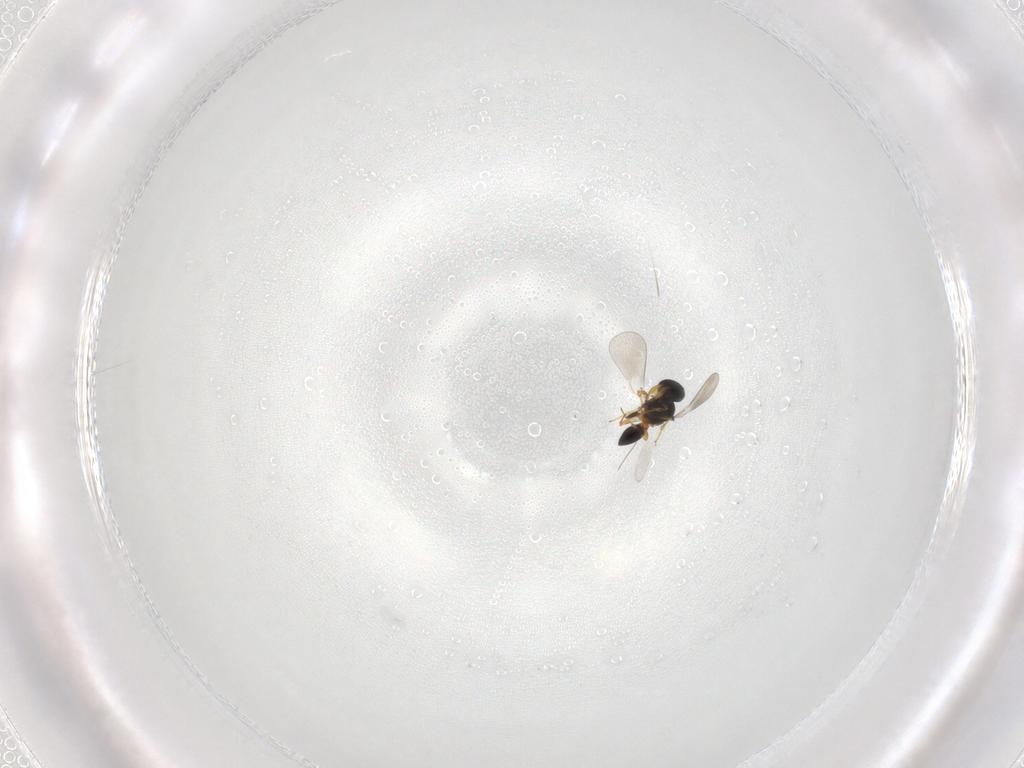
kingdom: Animalia
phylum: Arthropoda
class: Insecta
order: Hymenoptera
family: Platygastridae
